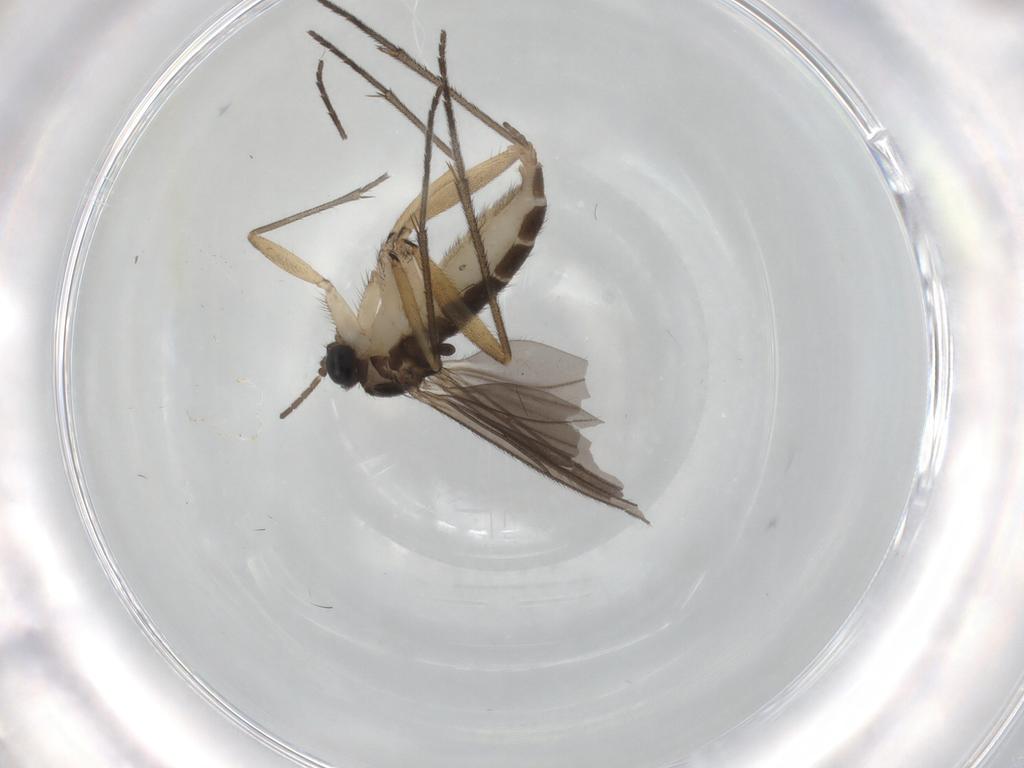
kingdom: Animalia
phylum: Arthropoda
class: Insecta
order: Diptera
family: Sciaridae
